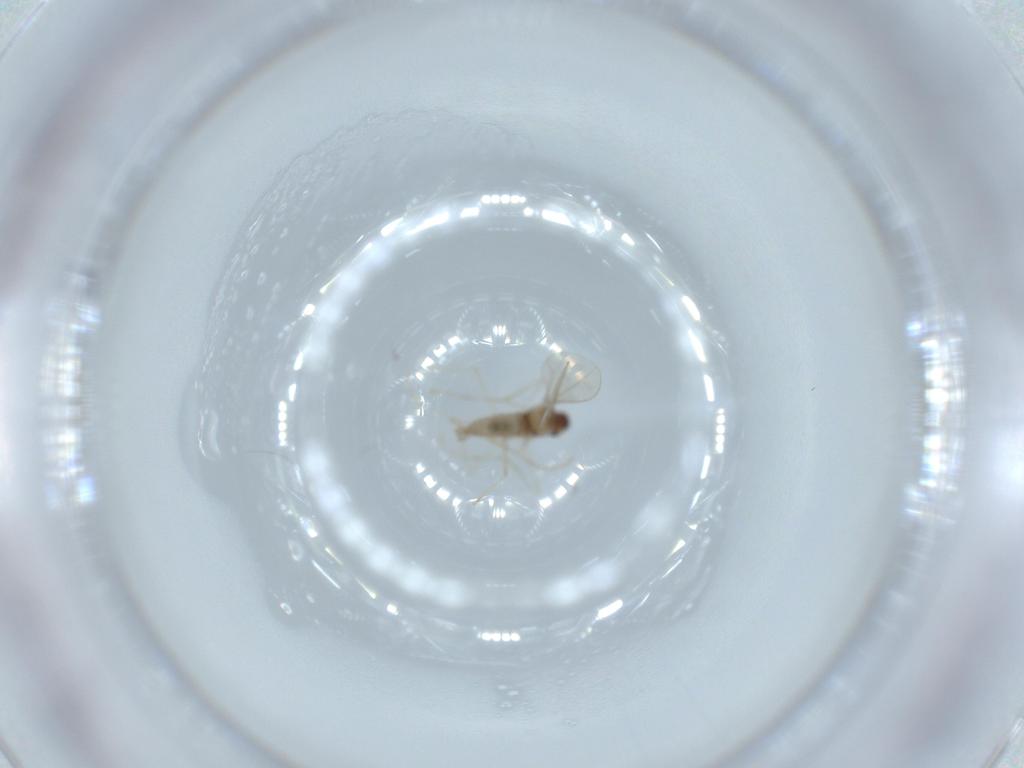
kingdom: Animalia
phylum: Arthropoda
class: Insecta
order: Diptera
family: Cecidomyiidae
